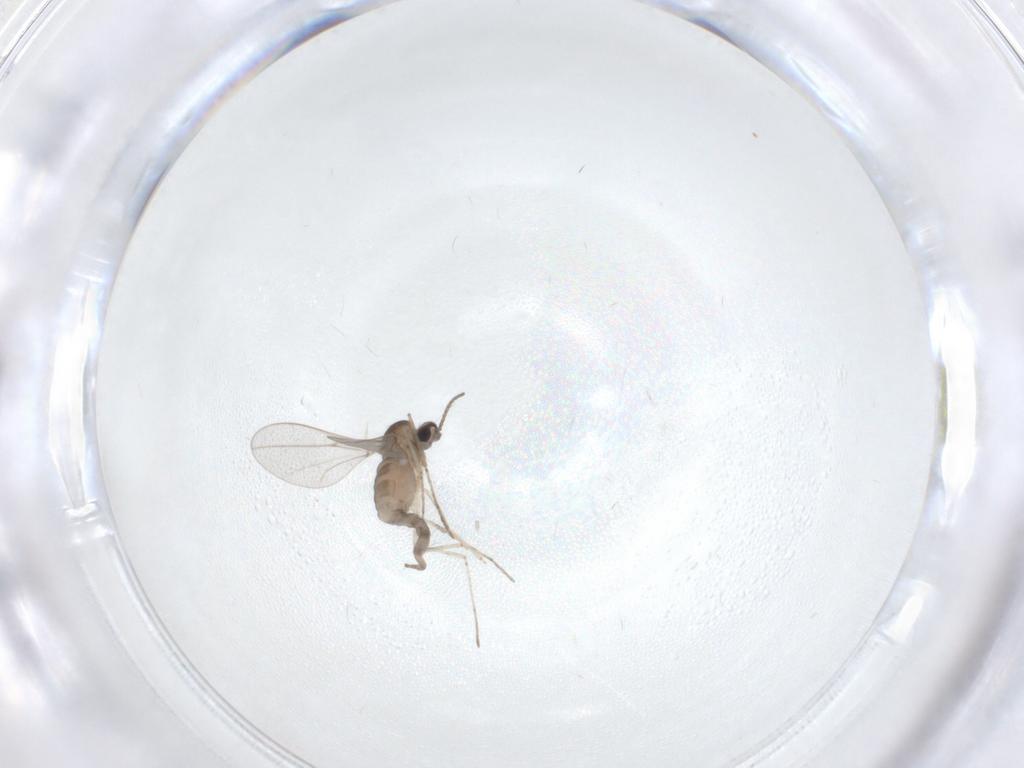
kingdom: Animalia
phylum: Arthropoda
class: Insecta
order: Diptera
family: Cecidomyiidae
